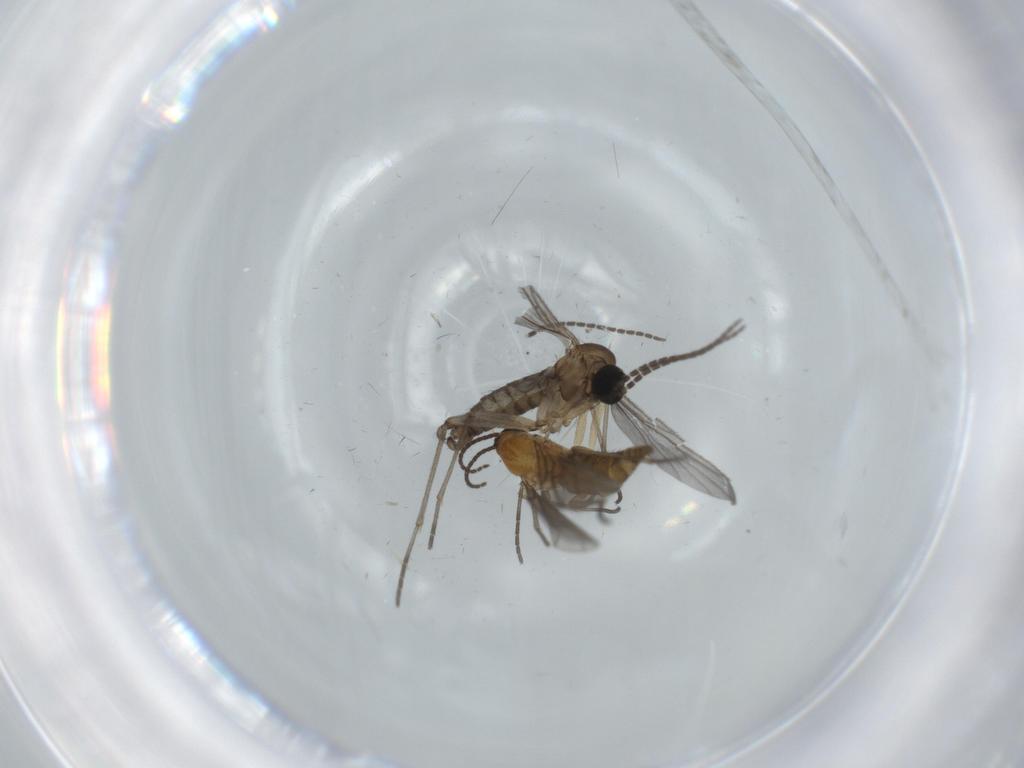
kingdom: Animalia
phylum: Arthropoda
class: Insecta
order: Diptera
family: Sciaridae
